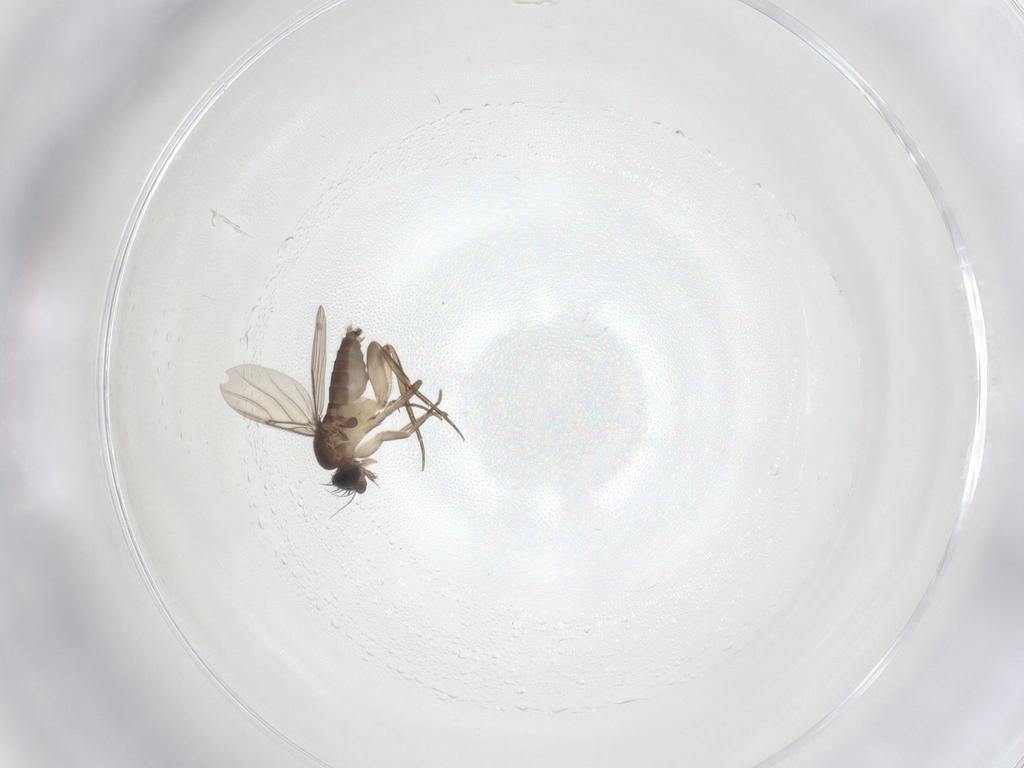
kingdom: Animalia
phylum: Arthropoda
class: Insecta
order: Diptera
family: Phoridae
